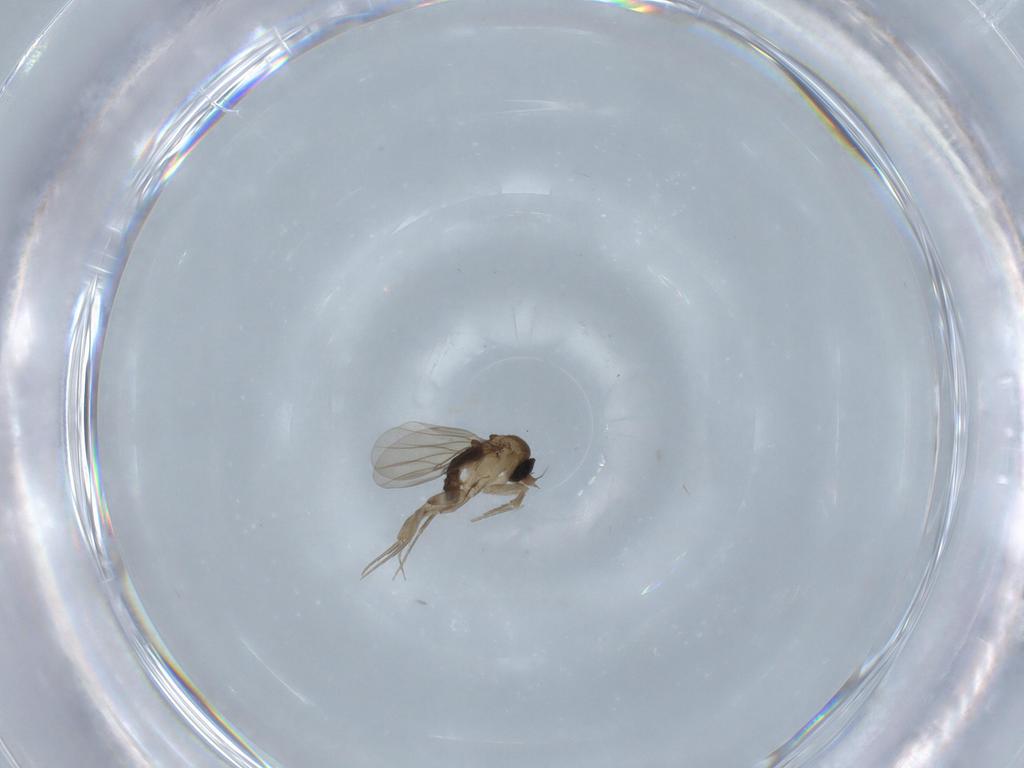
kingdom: Animalia
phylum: Arthropoda
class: Insecta
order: Diptera
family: Phoridae
